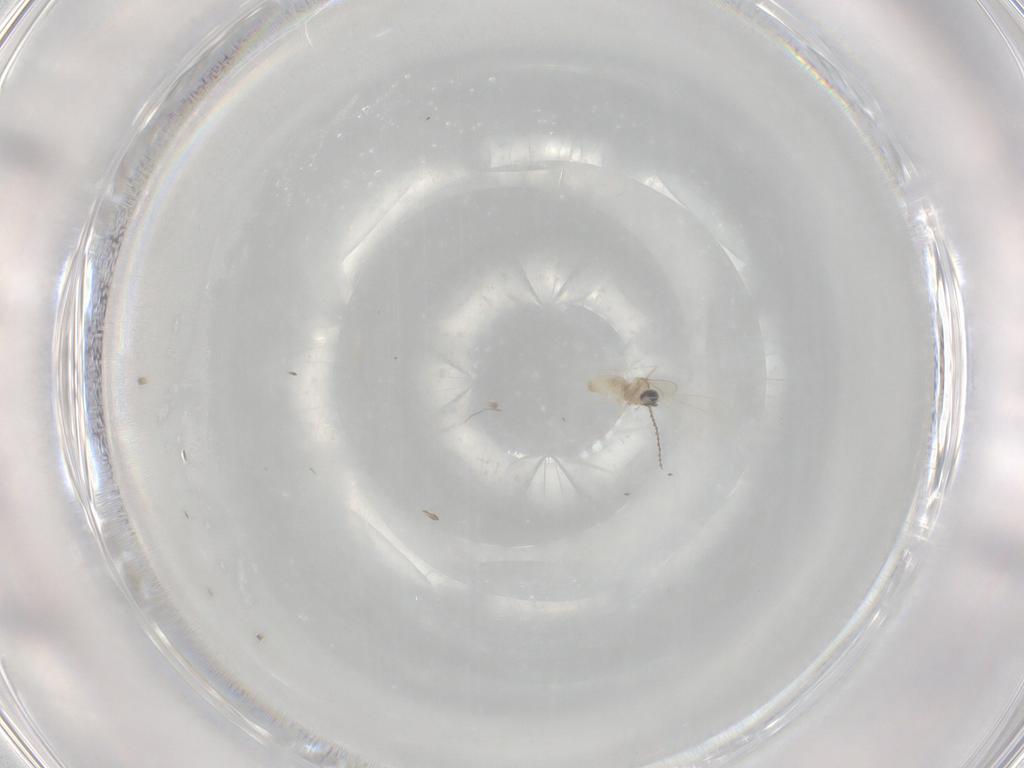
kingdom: Animalia
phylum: Arthropoda
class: Insecta
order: Diptera
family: Cecidomyiidae
